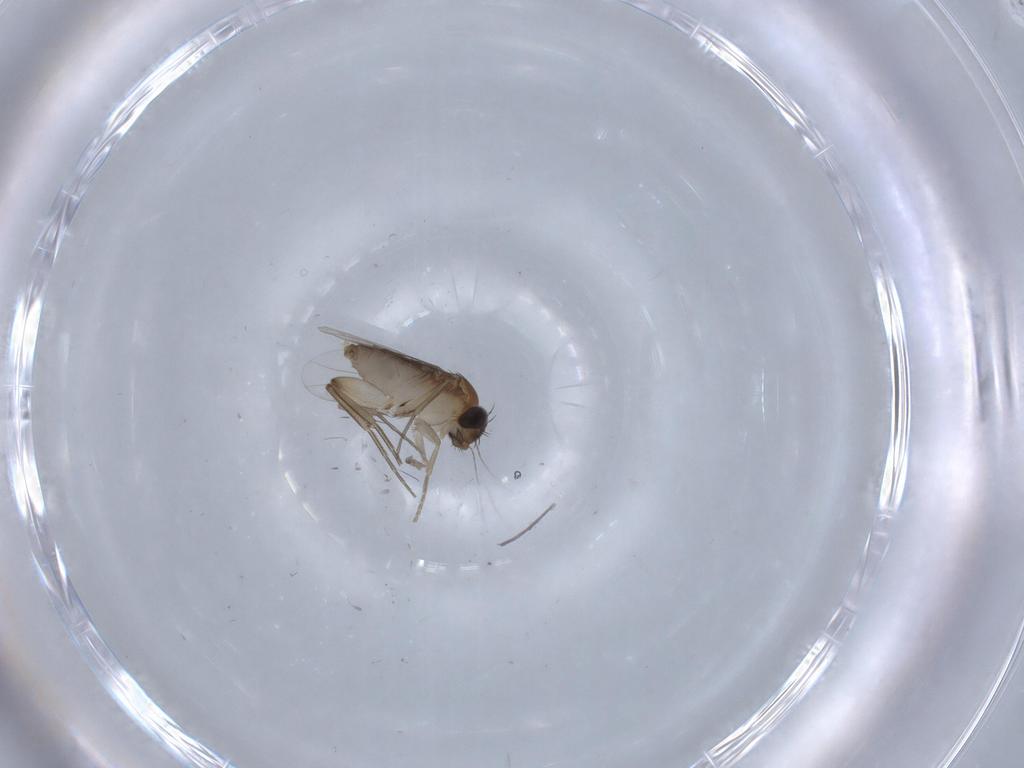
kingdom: Animalia
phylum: Arthropoda
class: Insecta
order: Diptera
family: Phoridae
